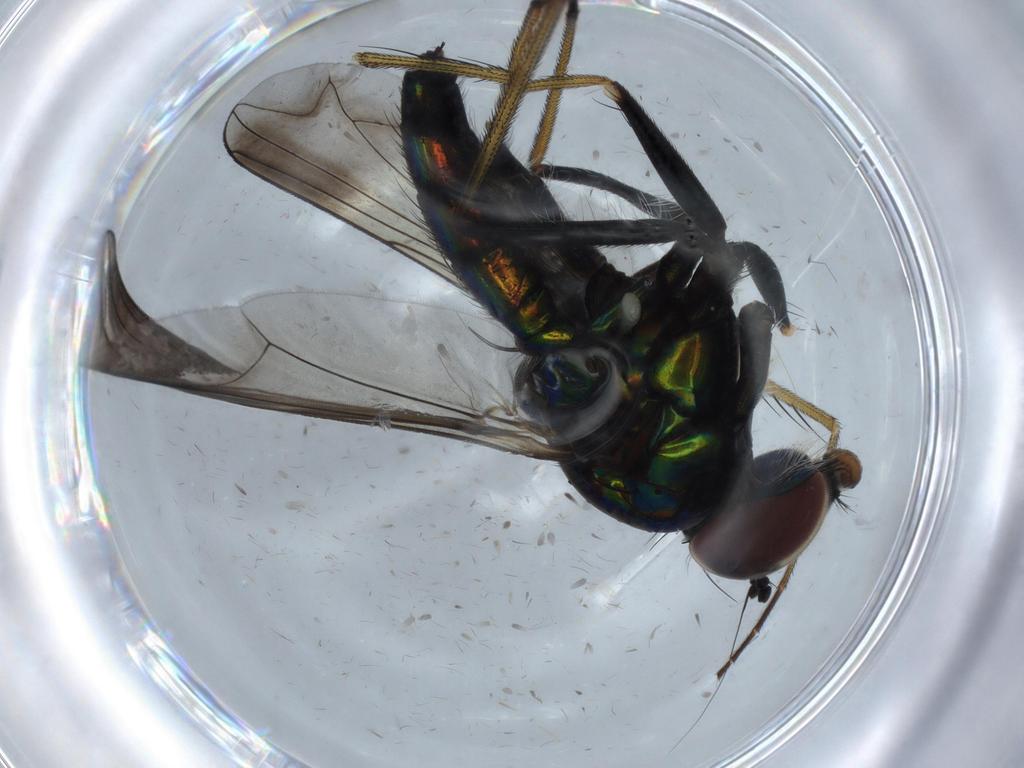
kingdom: Animalia
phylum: Arthropoda
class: Insecta
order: Diptera
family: Dolichopodidae
